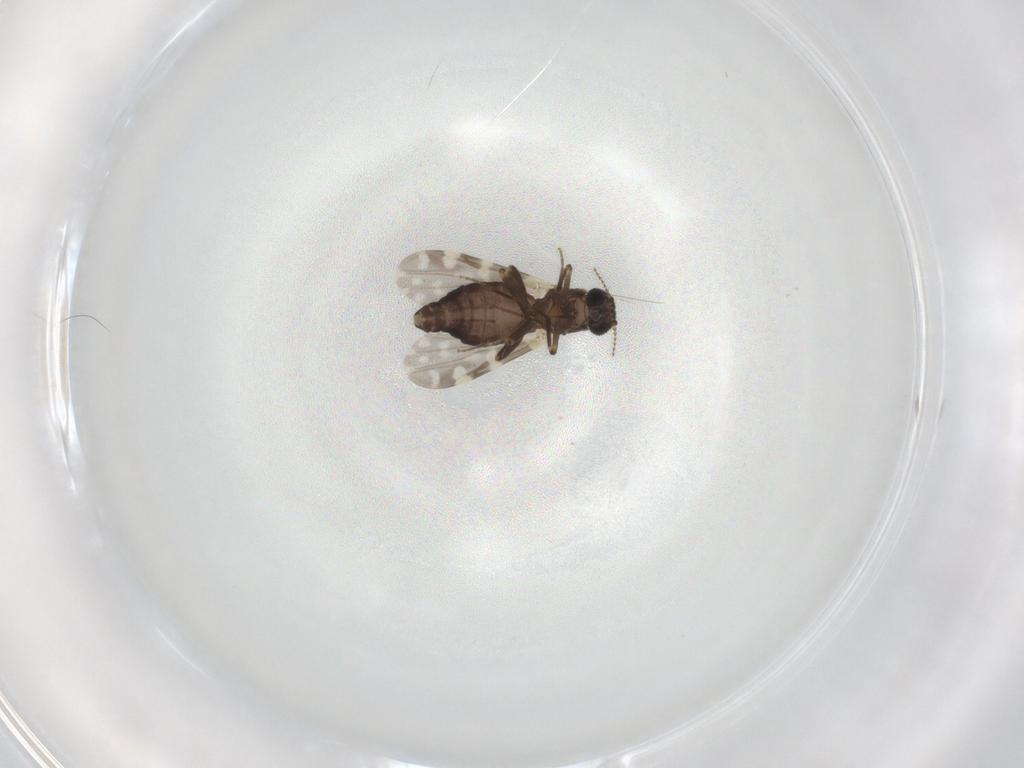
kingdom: Animalia
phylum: Arthropoda
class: Insecta
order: Diptera
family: Cecidomyiidae
